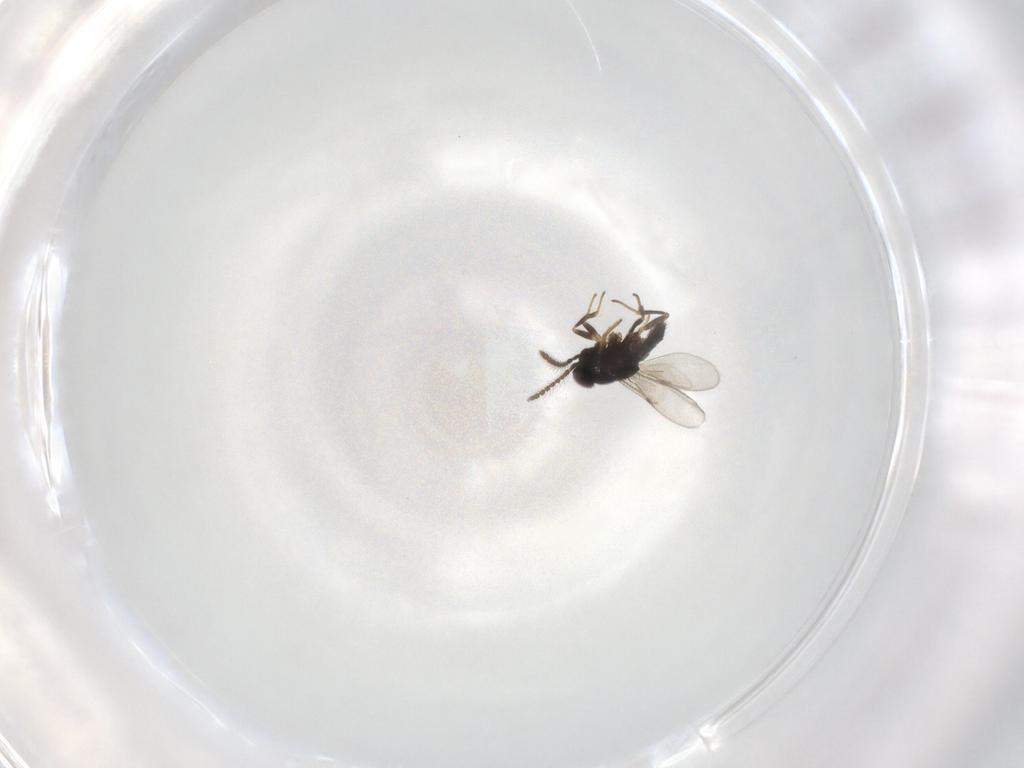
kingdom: Animalia
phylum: Arthropoda
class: Insecta
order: Hymenoptera
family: Encyrtidae
